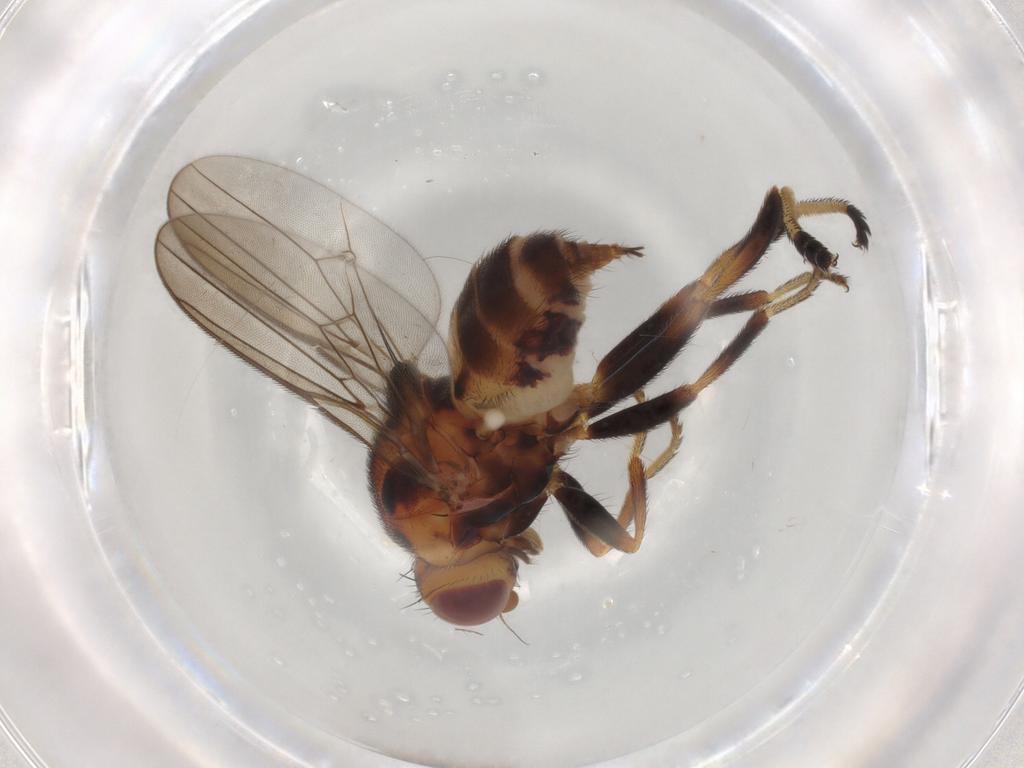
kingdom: Animalia
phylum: Arthropoda
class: Insecta
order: Diptera
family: Chloropidae
